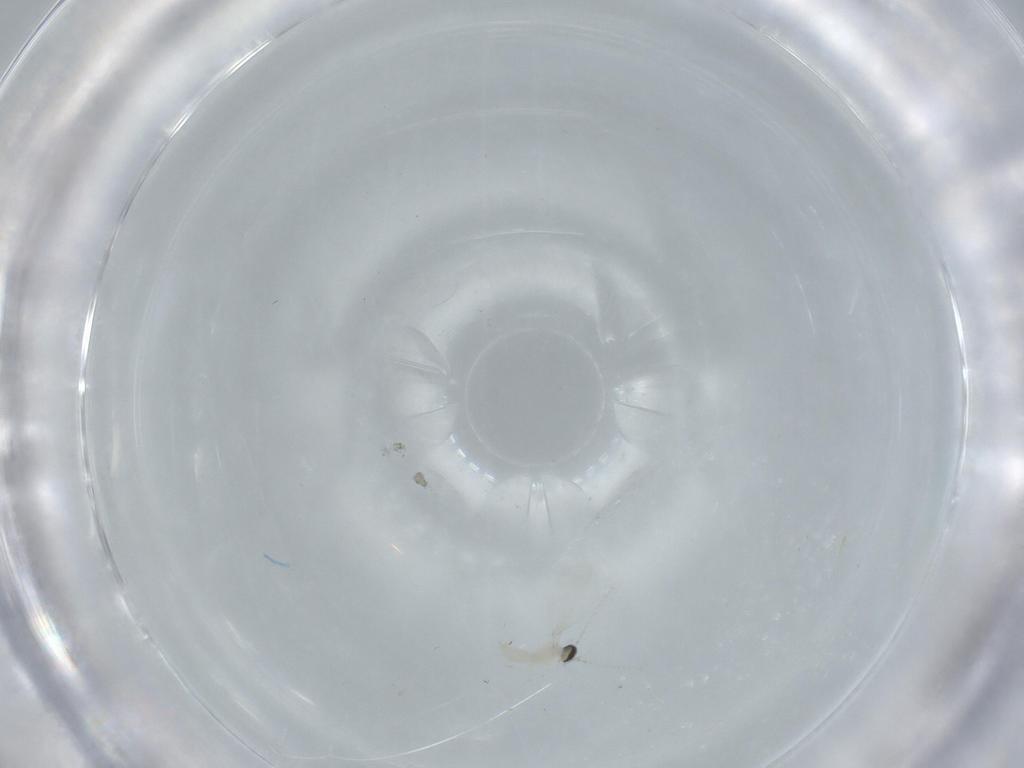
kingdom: Animalia
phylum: Arthropoda
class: Insecta
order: Diptera
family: Cecidomyiidae
